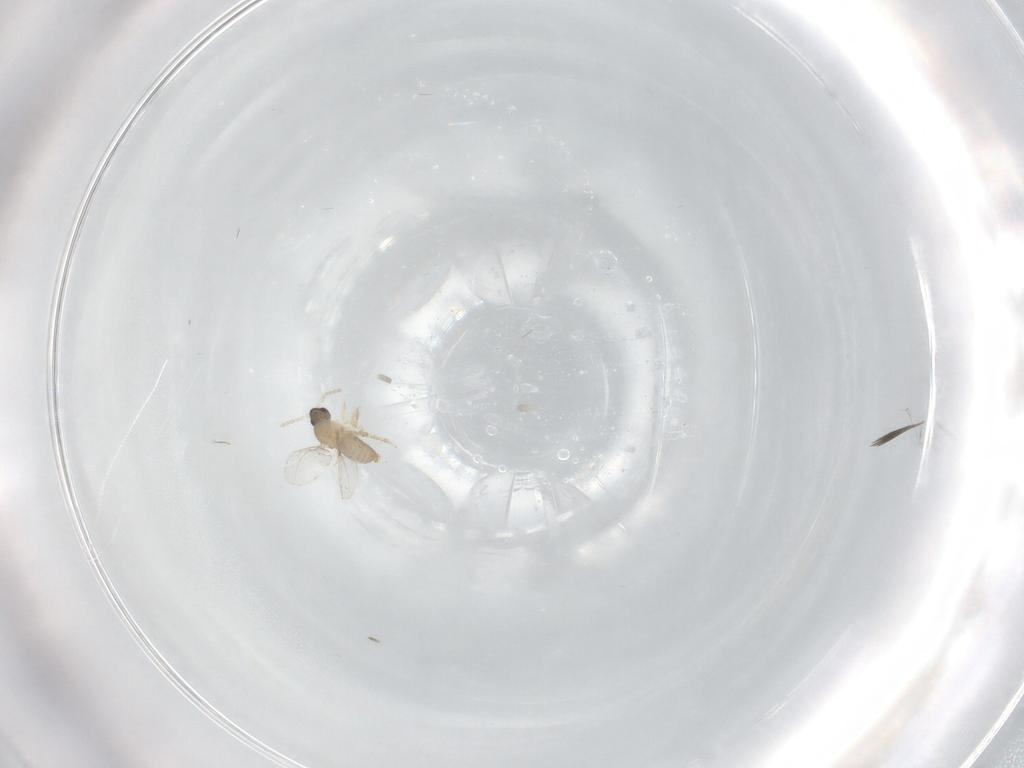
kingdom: Animalia
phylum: Arthropoda
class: Insecta
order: Diptera
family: Cecidomyiidae
